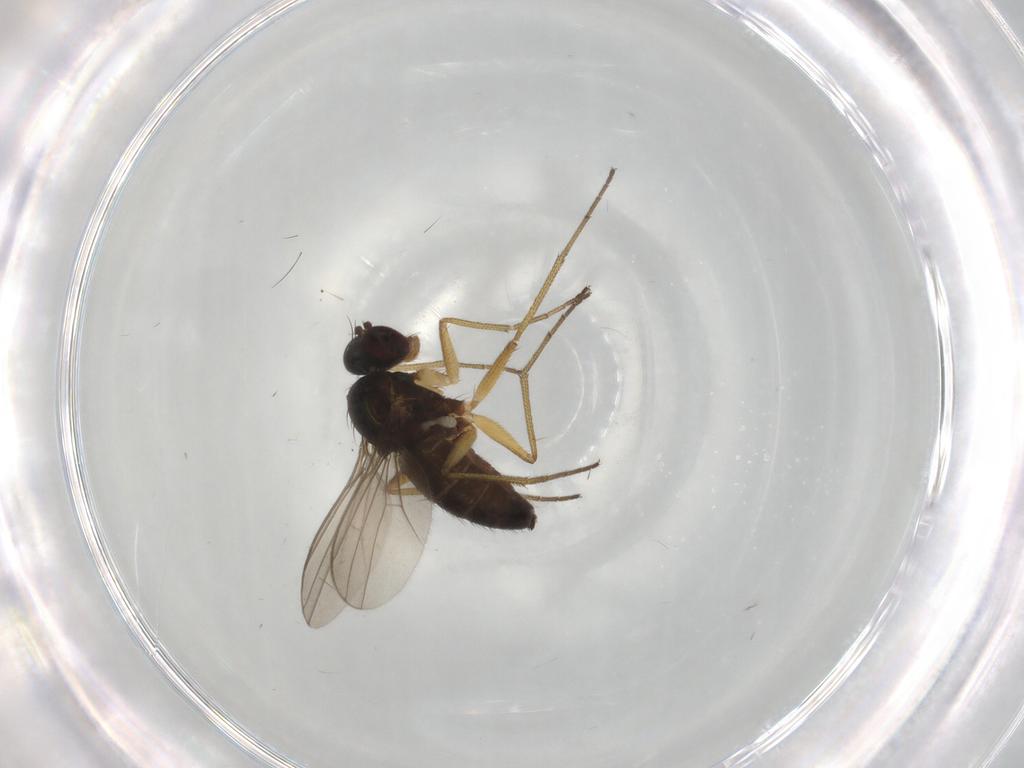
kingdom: Animalia
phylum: Arthropoda
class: Insecta
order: Diptera
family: Dolichopodidae
